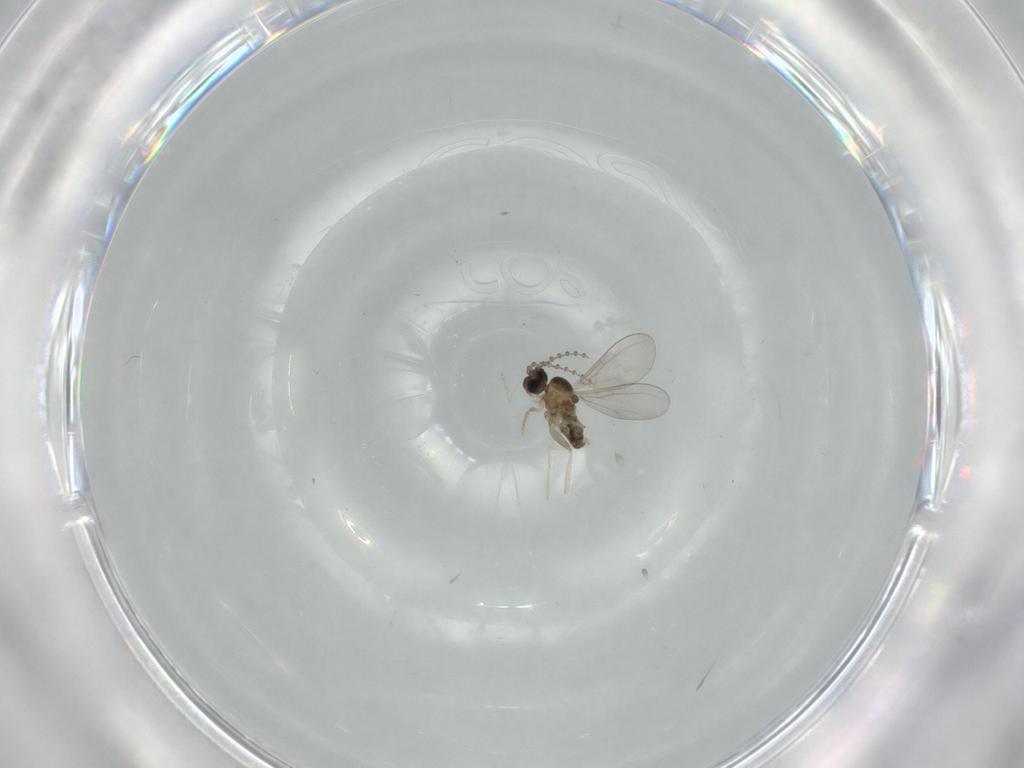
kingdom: Animalia
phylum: Arthropoda
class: Insecta
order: Diptera
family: Cecidomyiidae
